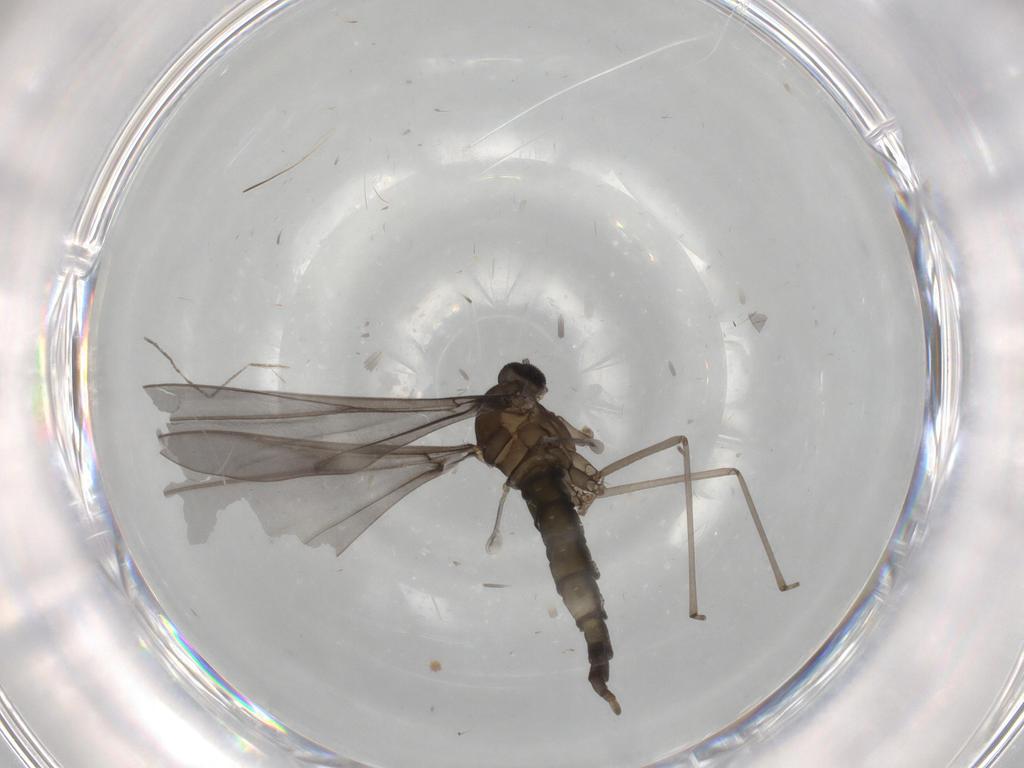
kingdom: Animalia
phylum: Arthropoda
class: Insecta
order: Diptera
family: Cecidomyiidae
